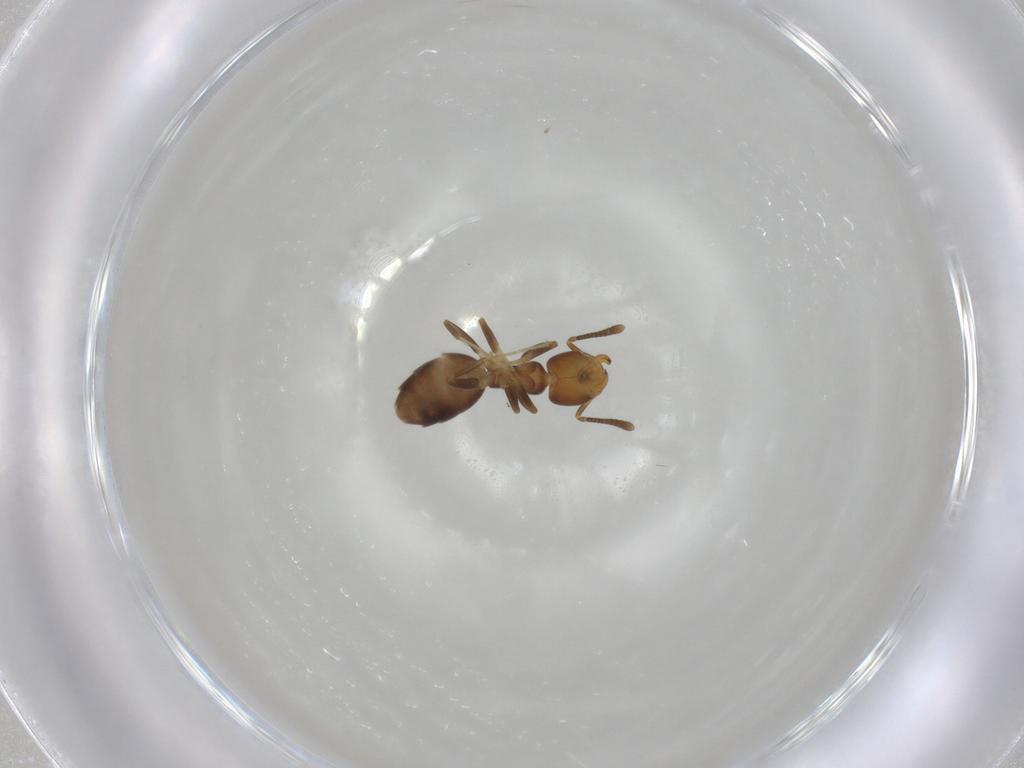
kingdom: Animalia
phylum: Arthropoda
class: Insecta
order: Hymenoptera
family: Formicidae
